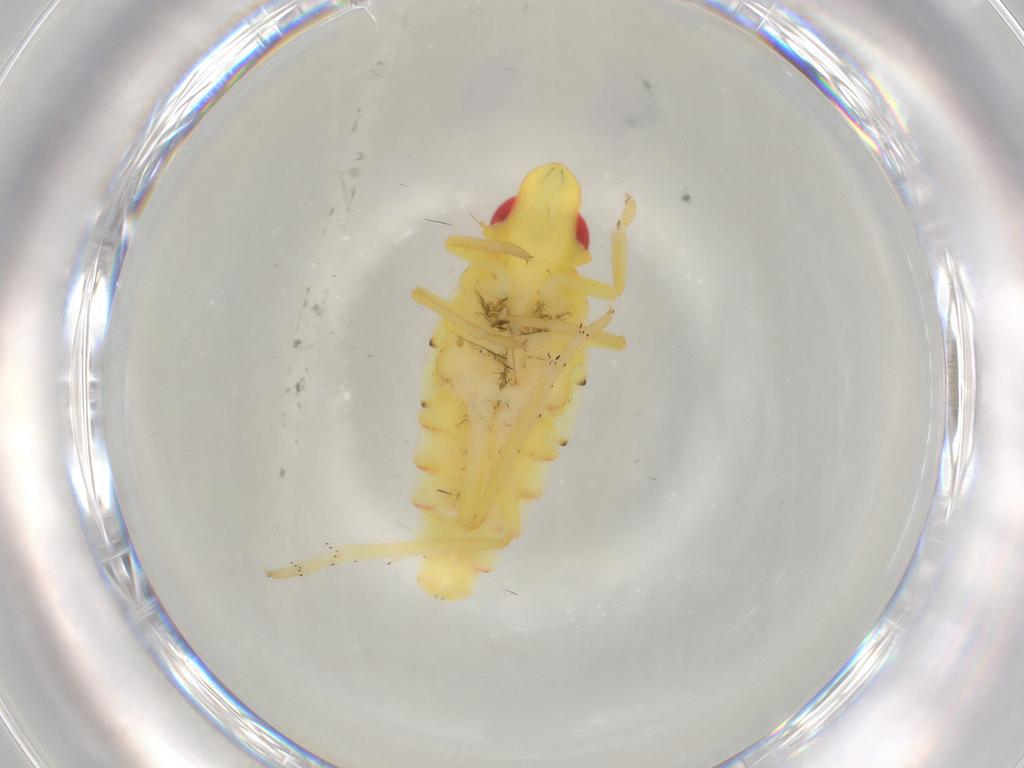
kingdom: Animalia
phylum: Arthropoda
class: Insecta
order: Hemiptera
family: Tropiduchidae
